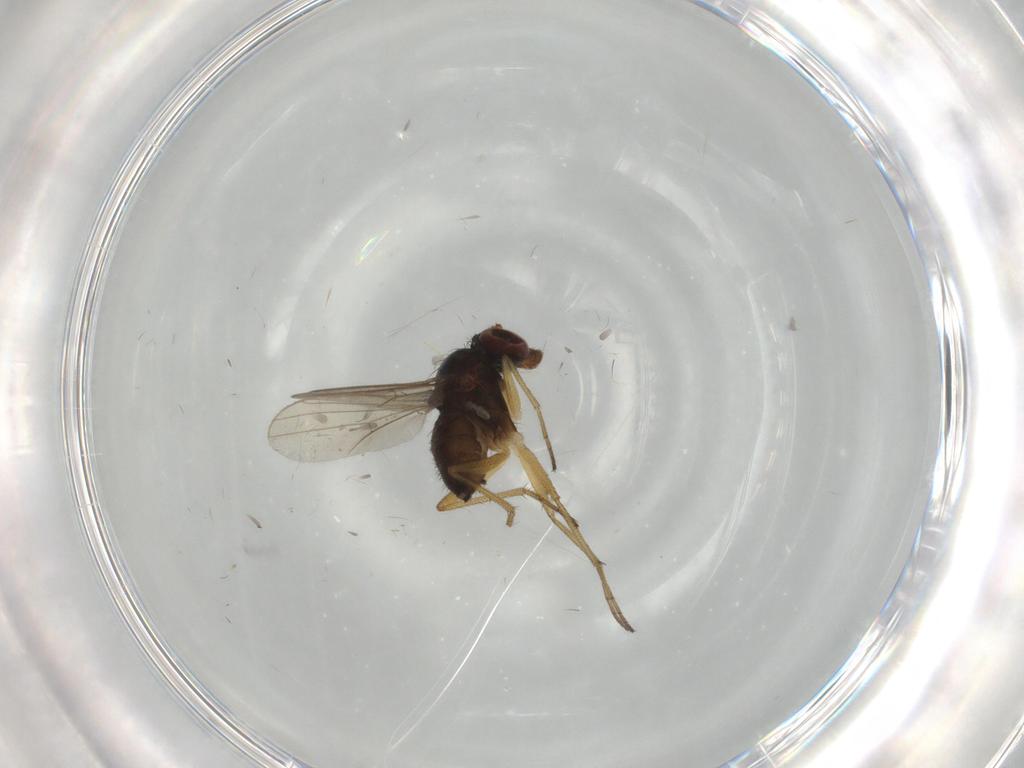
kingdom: Animalia
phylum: Arthropoda
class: Insecta
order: Diptera
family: Dolichopodidae
